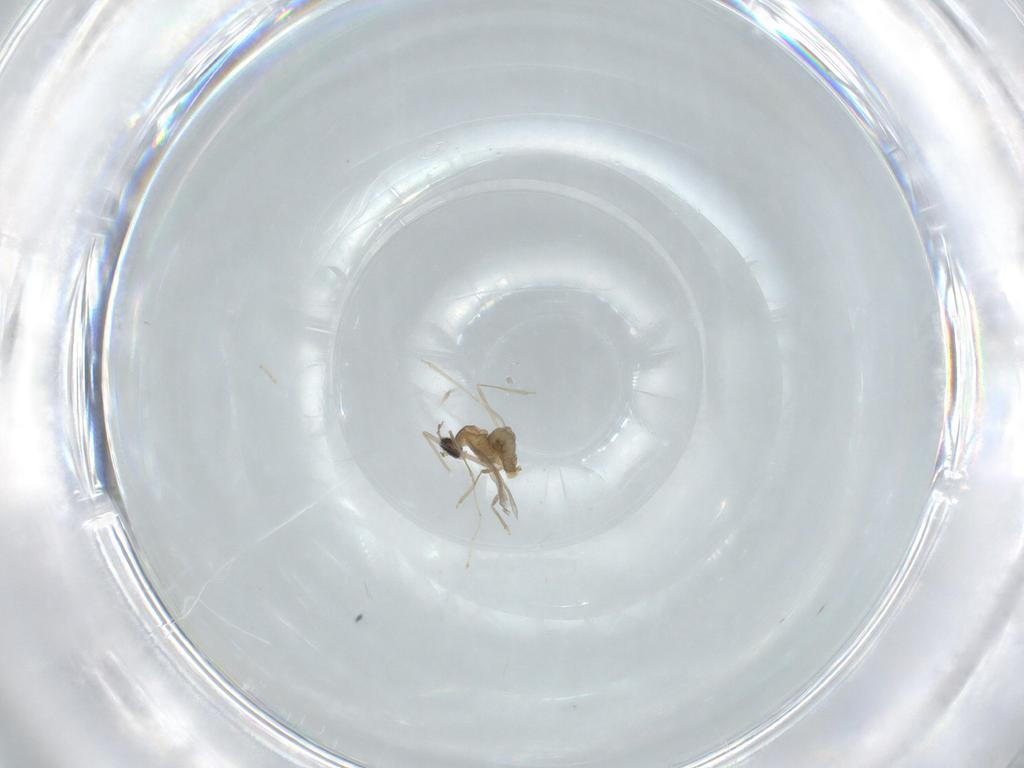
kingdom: Animalia
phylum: Arthropoda
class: Insecta
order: Diptera
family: Cecidomyiidae
